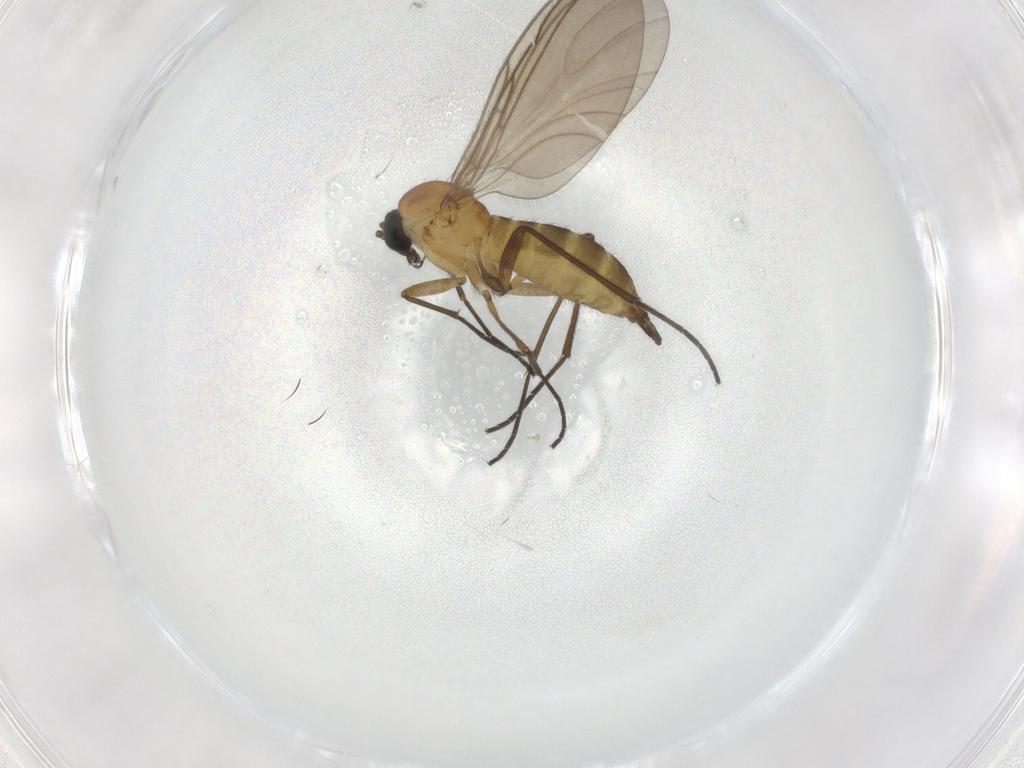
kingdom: Animalia
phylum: Arthropoda
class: Insecta
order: Diptera
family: Sciaridae
